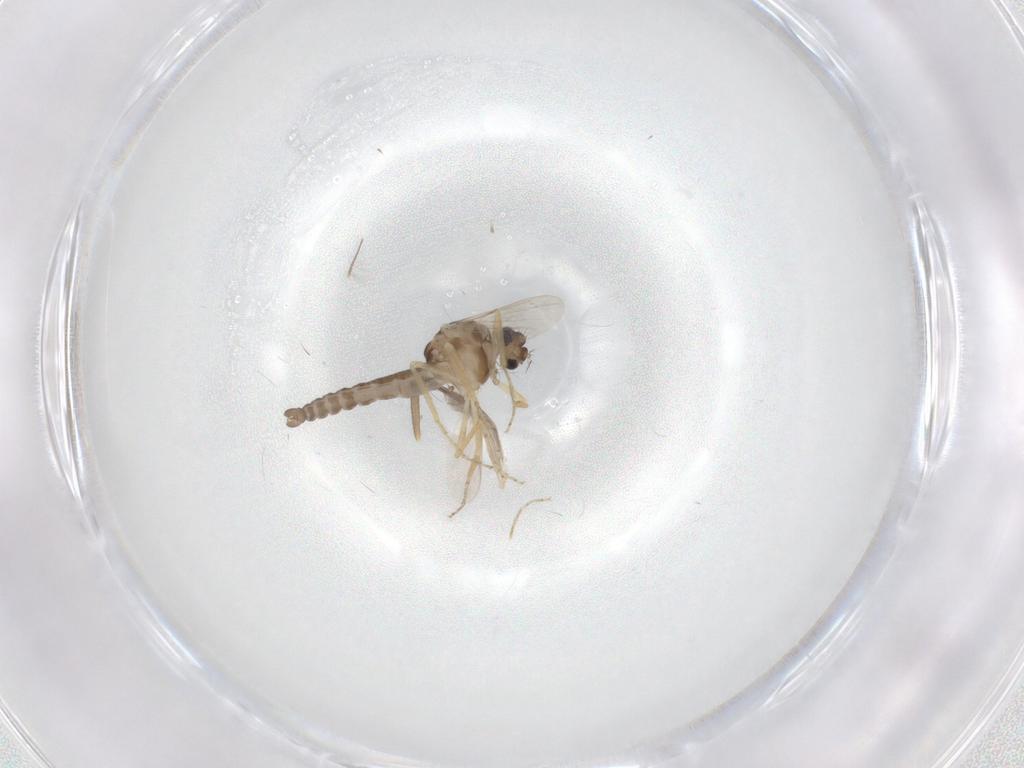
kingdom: Animalia
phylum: Arthropoda
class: Insecta
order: Diptera
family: Ceratopogonidae
